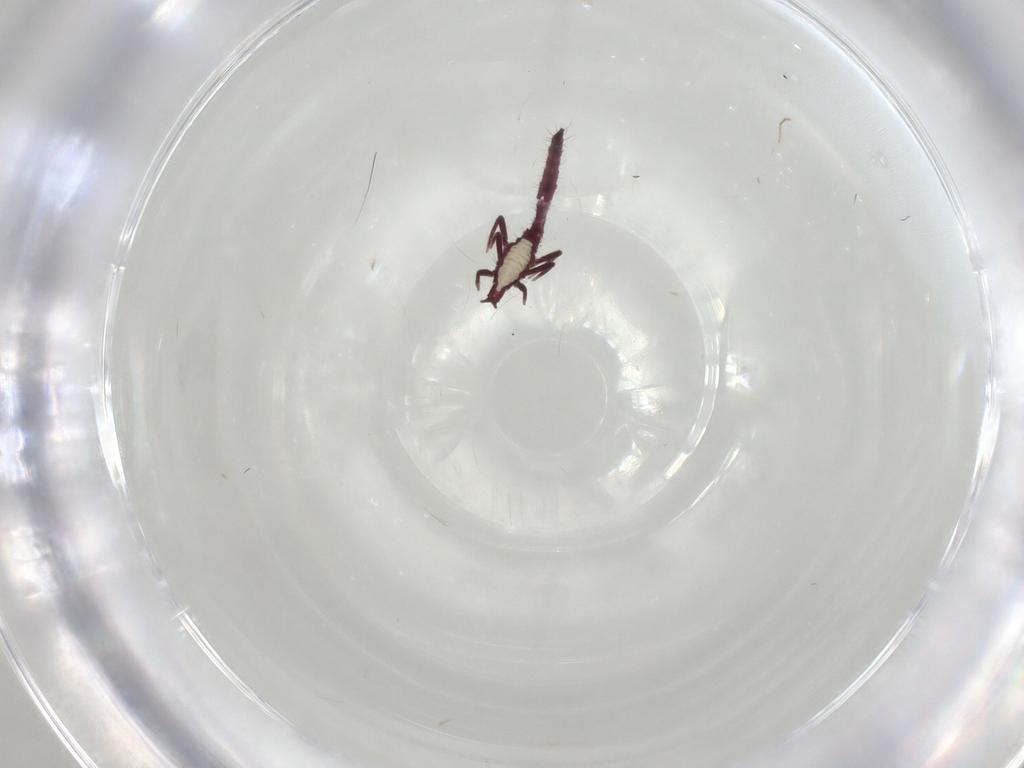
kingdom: Animalia
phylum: Arthropoda
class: Insecta
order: Thysanoptera
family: Phlaeothripidae
